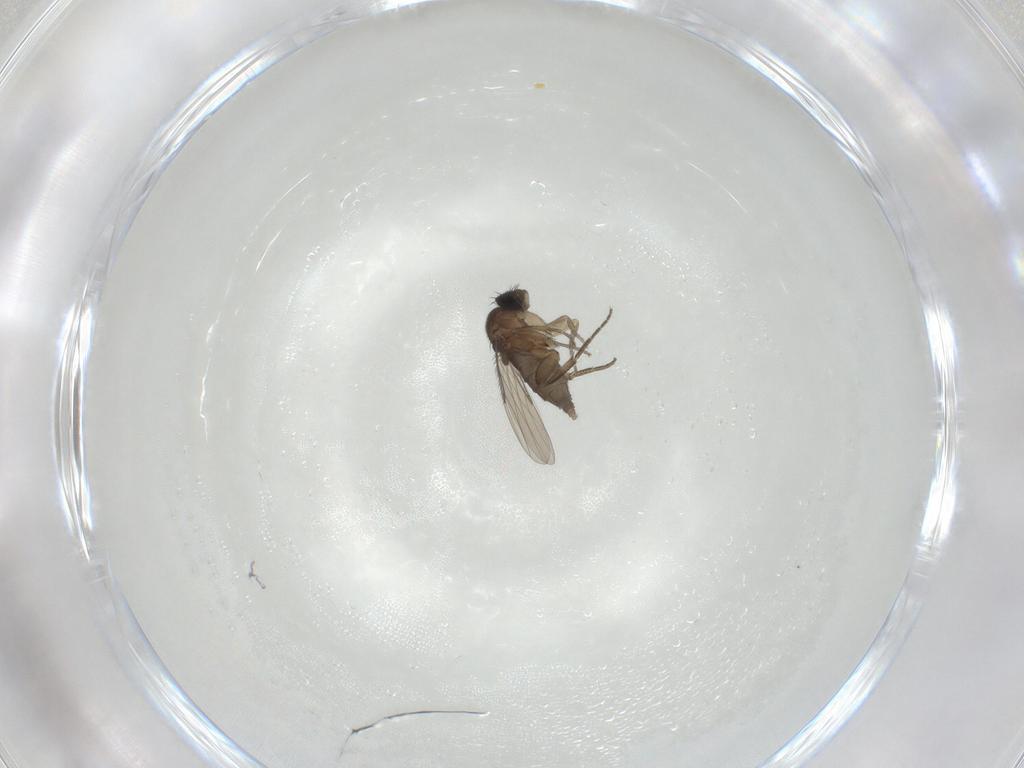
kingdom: Animalia
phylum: Arthropoda
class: Insecta
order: Diptera
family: Phoridae
